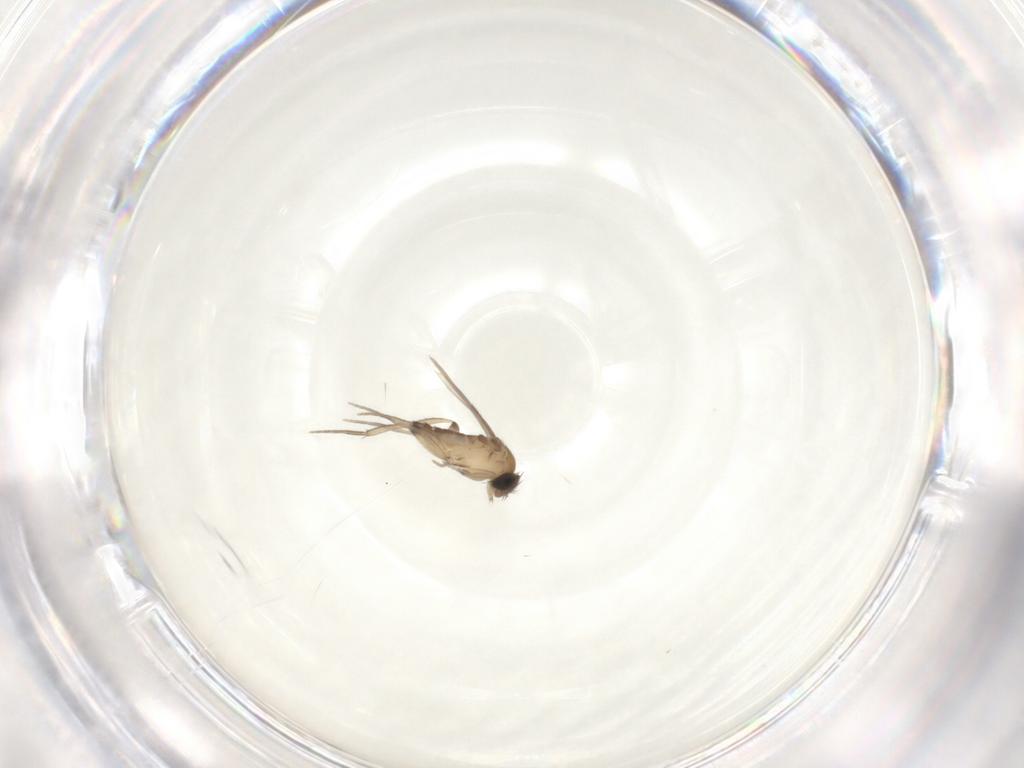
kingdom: Animalia
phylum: Arthropoda
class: Insecta
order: Diptera
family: Phoridae
